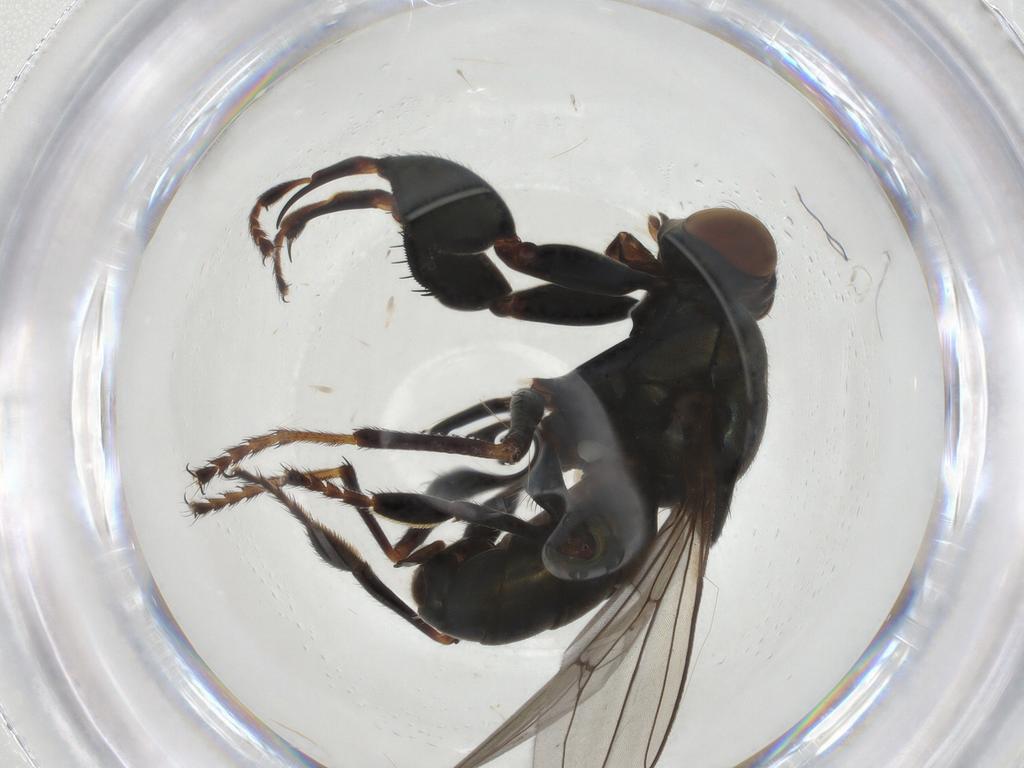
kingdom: Animalia
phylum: Arthropoda
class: Insecta
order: Diptera
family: Ephydridae
